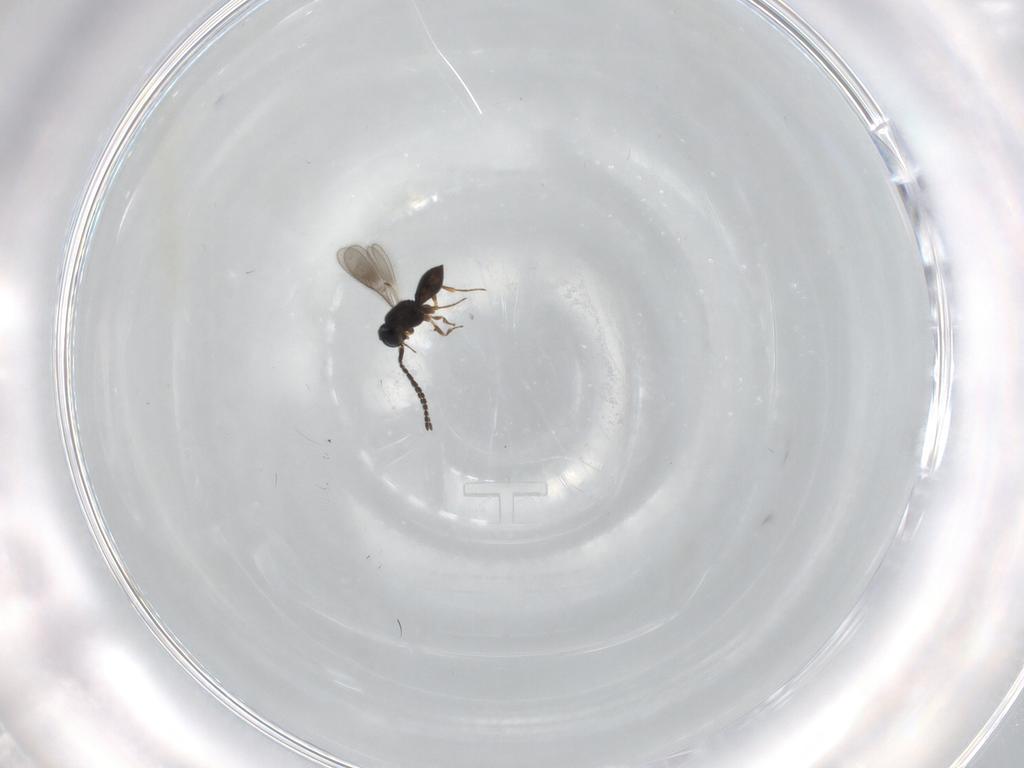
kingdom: Animalia
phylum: Arthropoda
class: Insecta
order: Hymenoptera
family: Scelionidae
